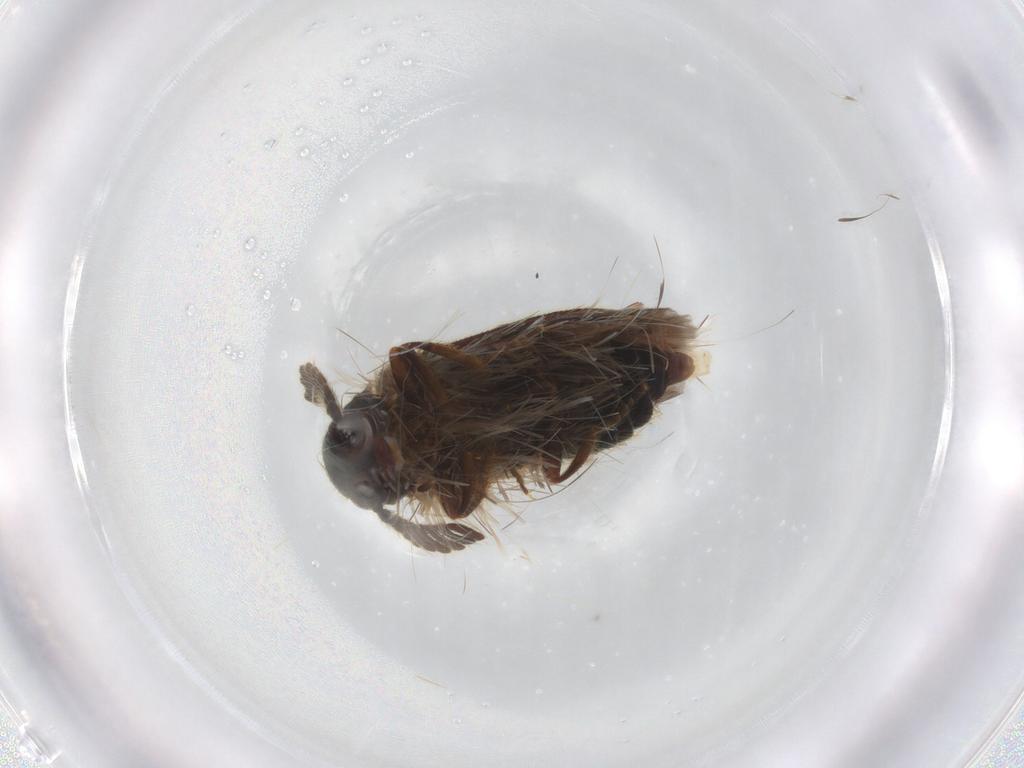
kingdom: Animalia
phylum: Arthropoda
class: Insecta
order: Coleoptera
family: Elateridae
